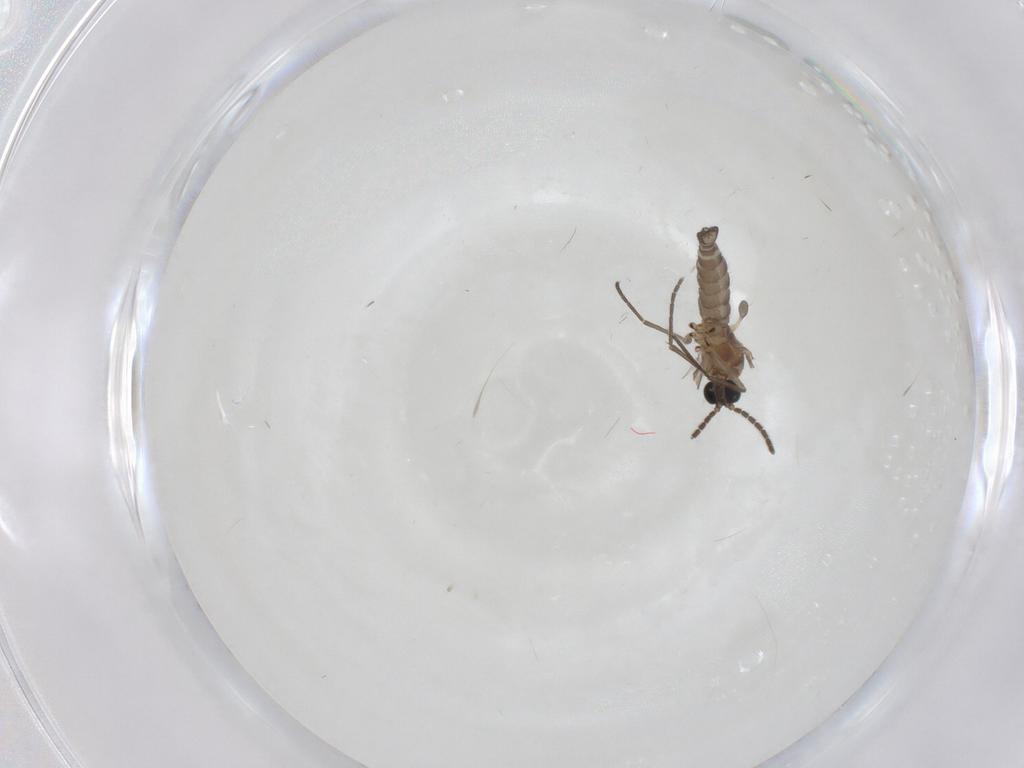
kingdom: Animalia
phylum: Arthropoda
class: Insecta
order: Diptera
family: Sciaridae
